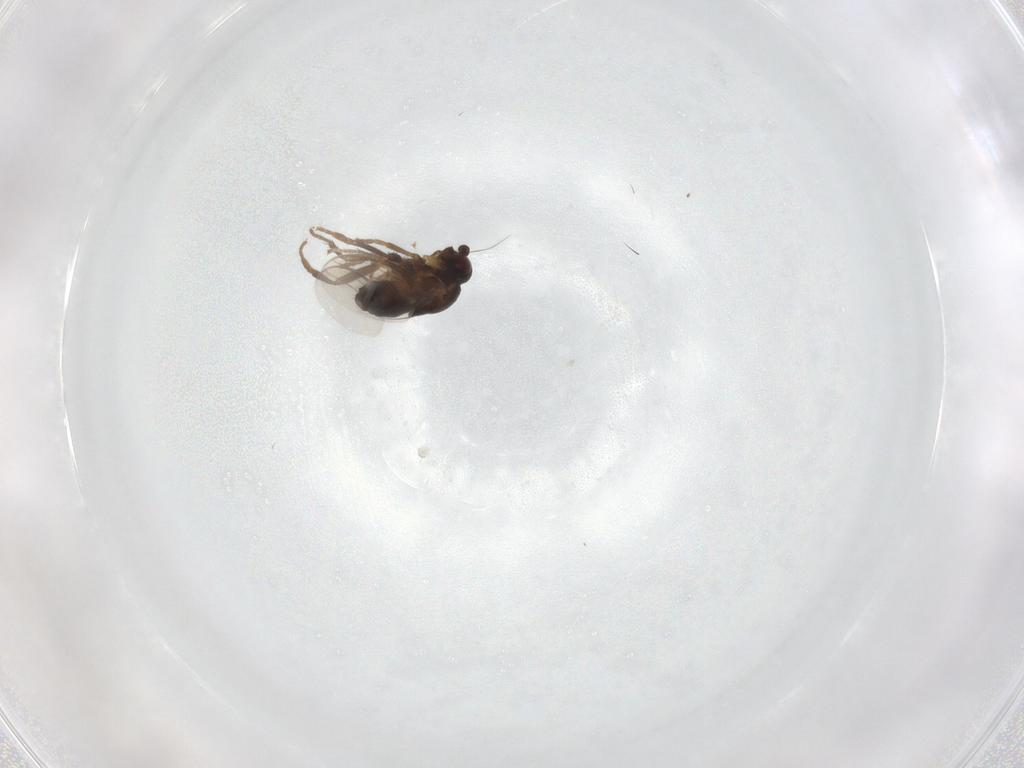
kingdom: Animalia
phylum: Arthropoda
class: Insecta
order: Diptera
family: Sphaeroceridae
